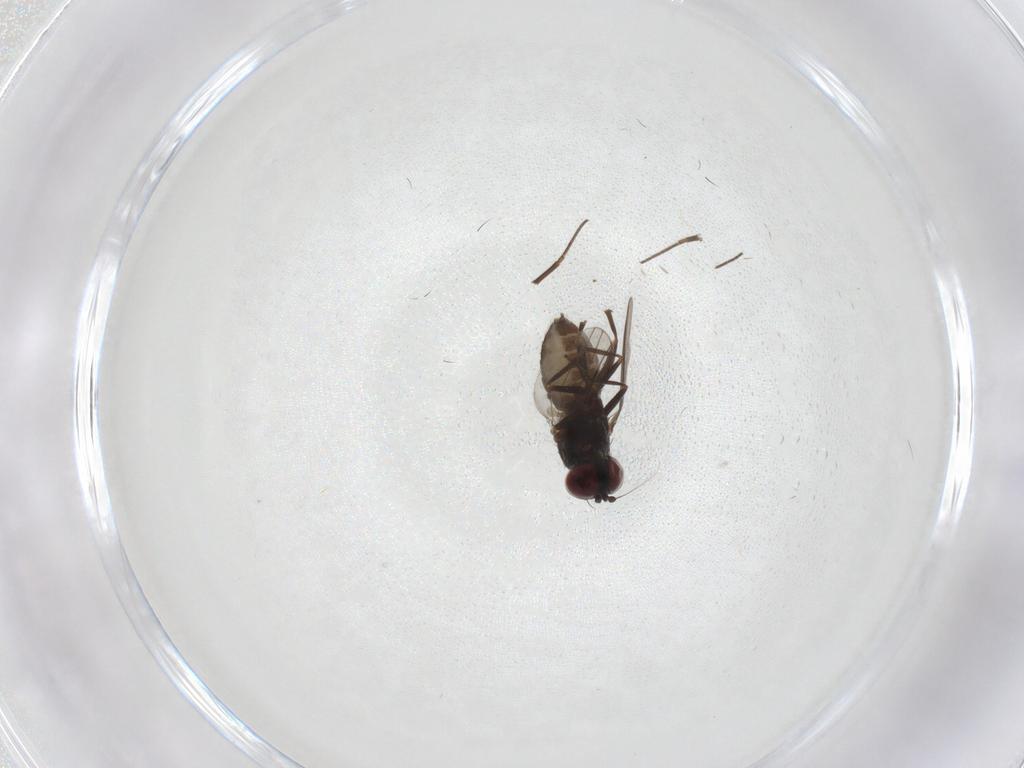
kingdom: Animalia
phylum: Arthropoda
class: Insecta
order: Diptera
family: Dolichopodidae
